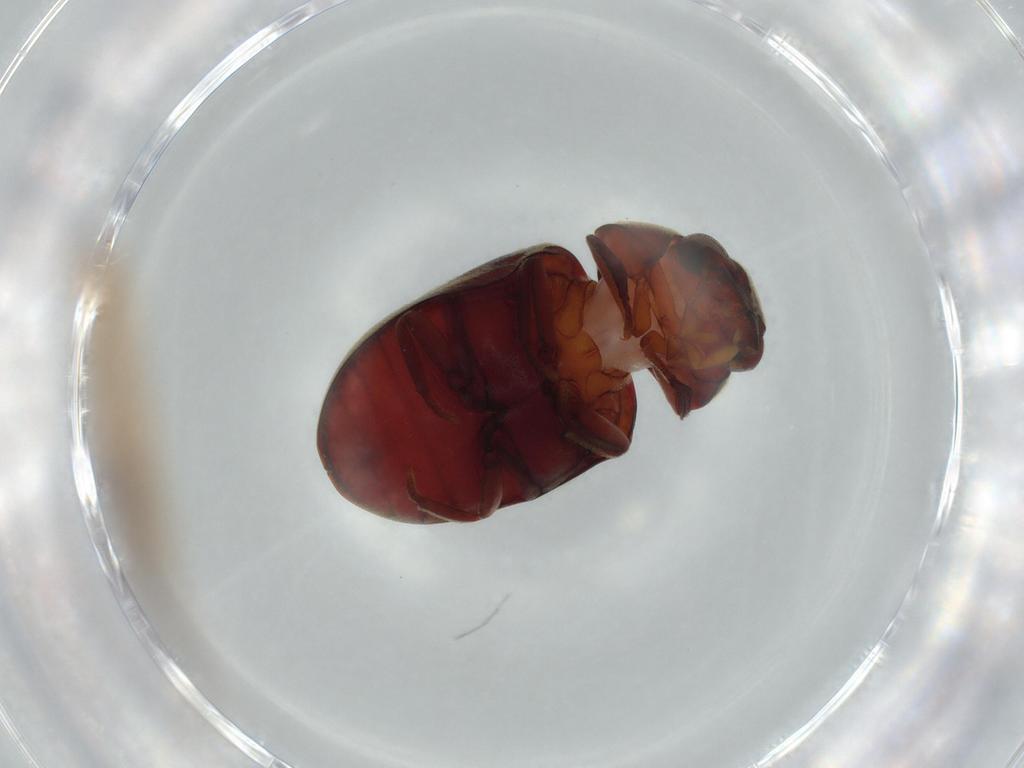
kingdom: Animalia
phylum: Arthropoda
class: Insecta
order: Coleoptera
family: Ptinidae
